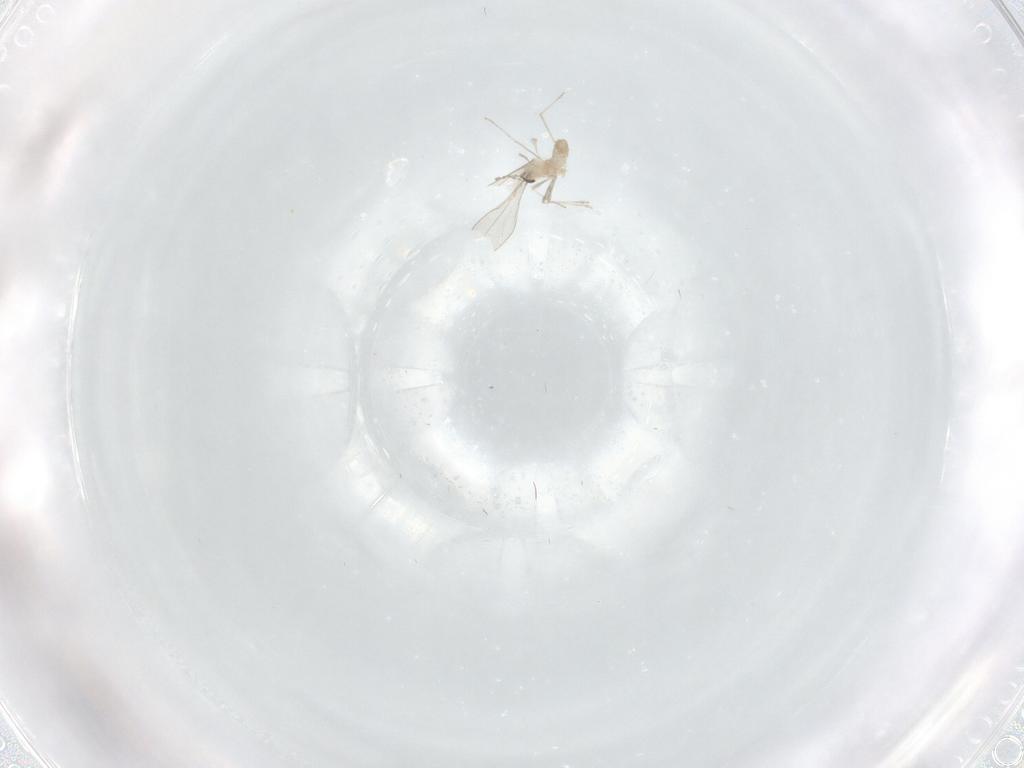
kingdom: Animalia
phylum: Arthropoda
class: Insecta
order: Diptera
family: Cecidomyiidae
